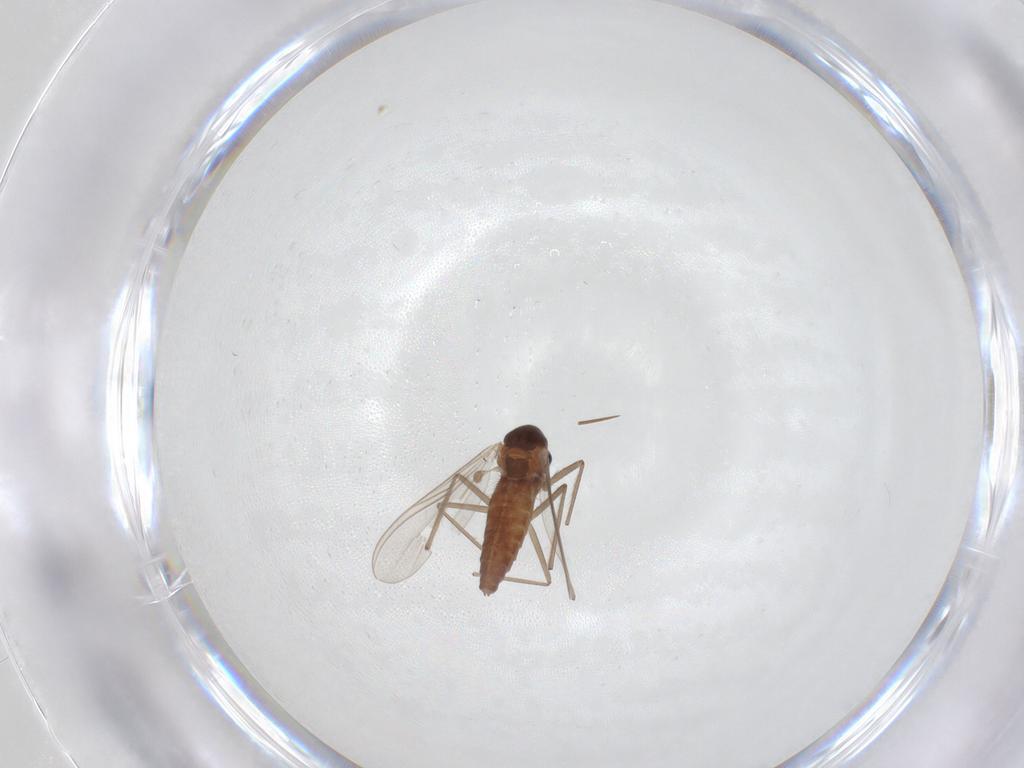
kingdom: Animalia
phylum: Arthropoda
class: Insecta
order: Diptera
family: Chironomidae
